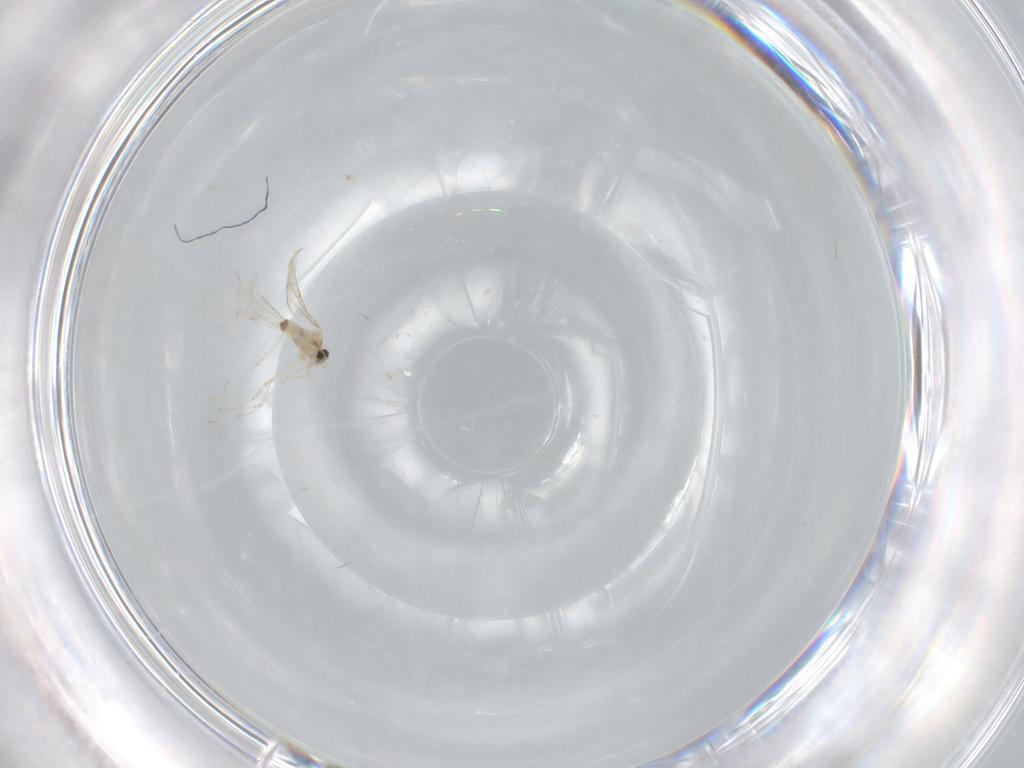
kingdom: Animalia
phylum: Arthropoda
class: Insecta
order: Diptera
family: Cecidomyiidae
